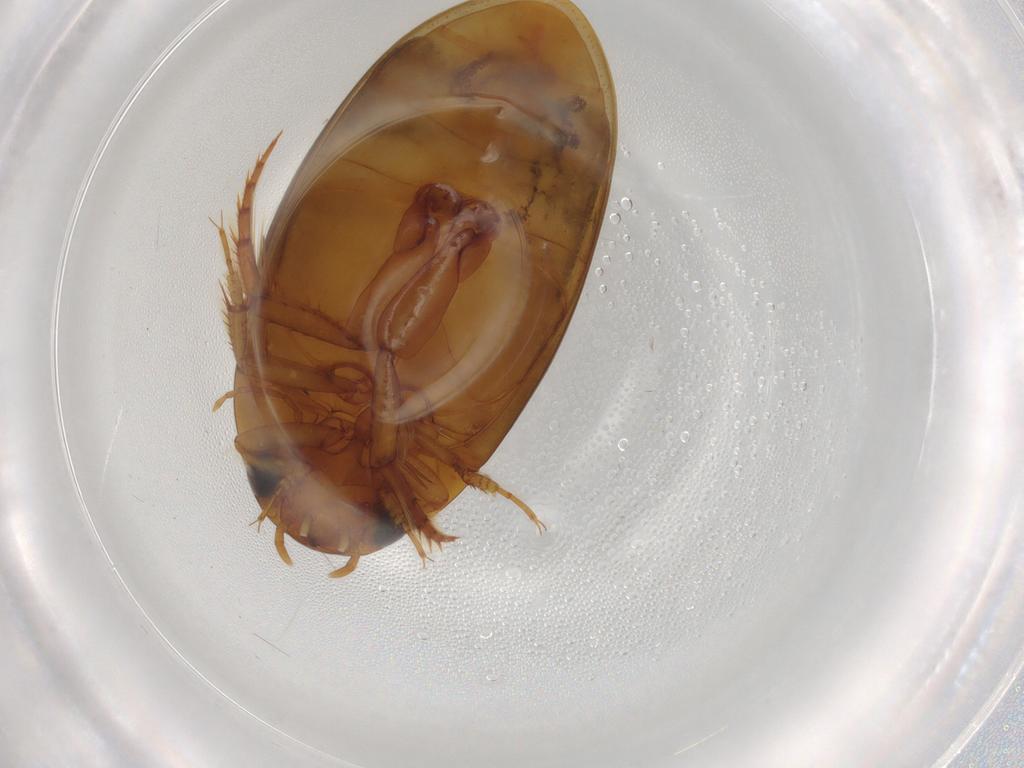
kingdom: Animalia
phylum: Arthropoda
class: Insecta
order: Coleoptera
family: Dytiscidae
